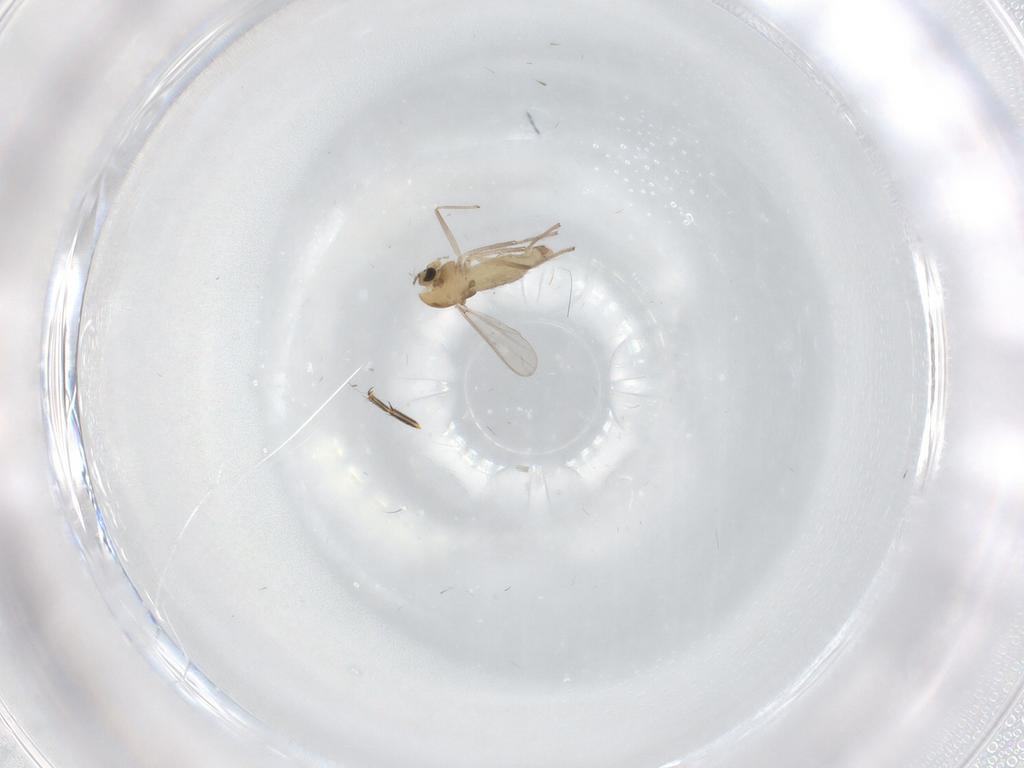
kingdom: Animalia
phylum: Arthropoda
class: Insecta
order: Diptera
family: Chironomidae
